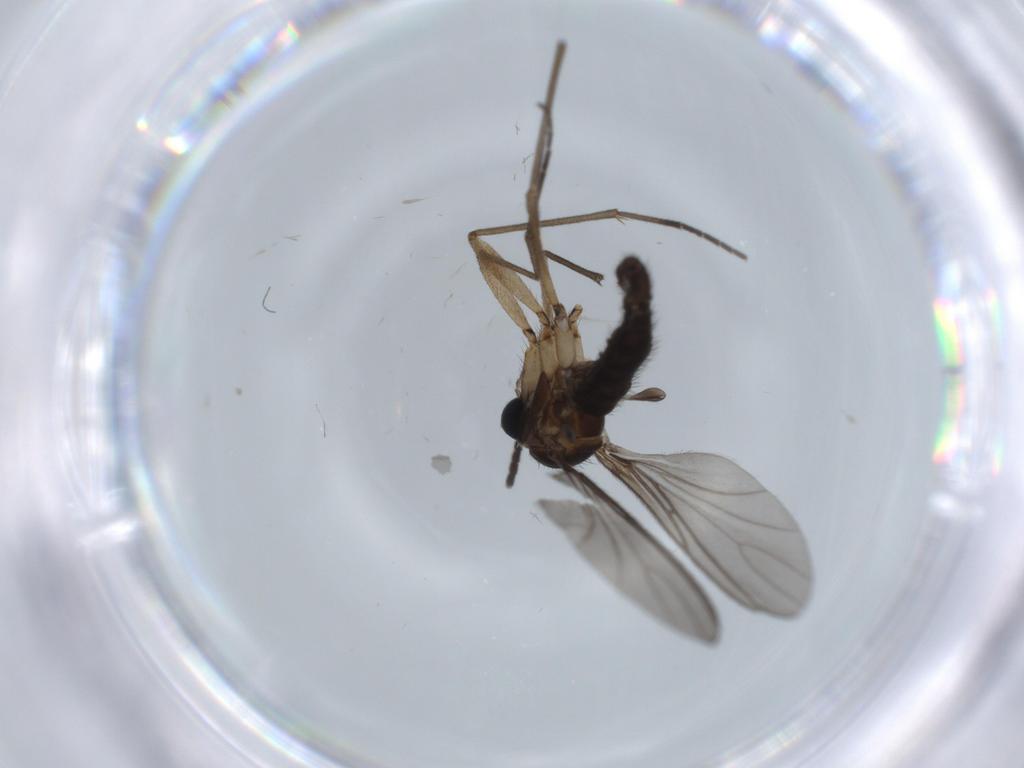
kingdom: Animalia
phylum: Arthropoda
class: Insecta
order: Diptera
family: Sciaridae
